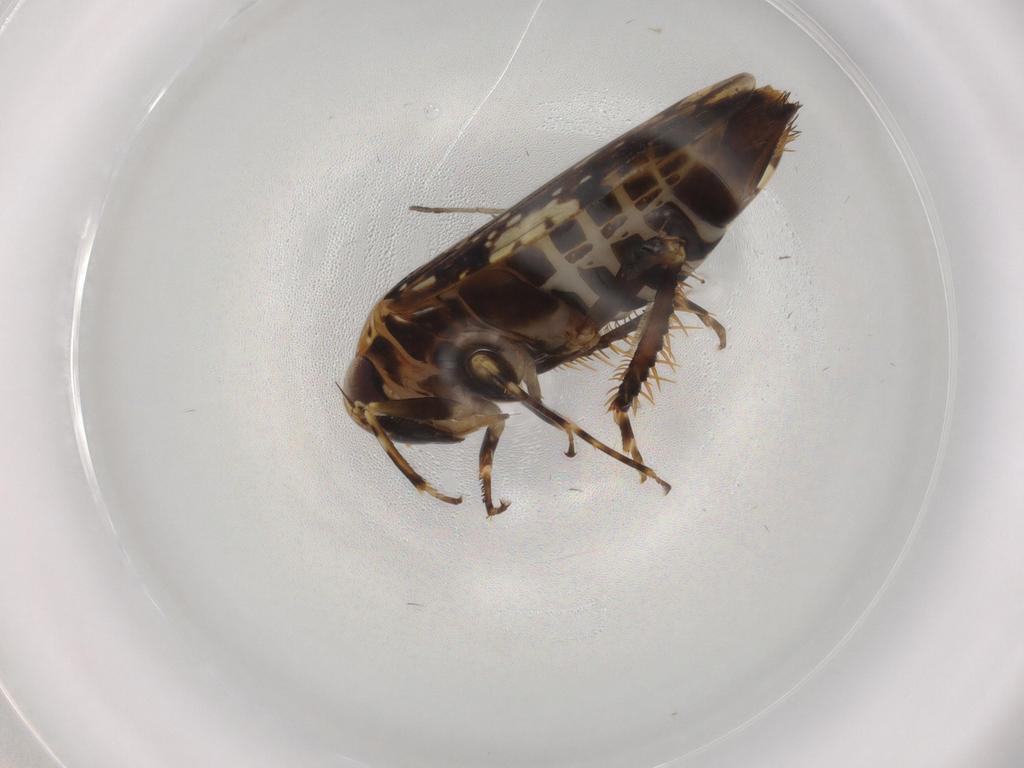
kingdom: Animalia
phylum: Arthropoda
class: Insecta
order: Hemiptera
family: Cicadellidae
